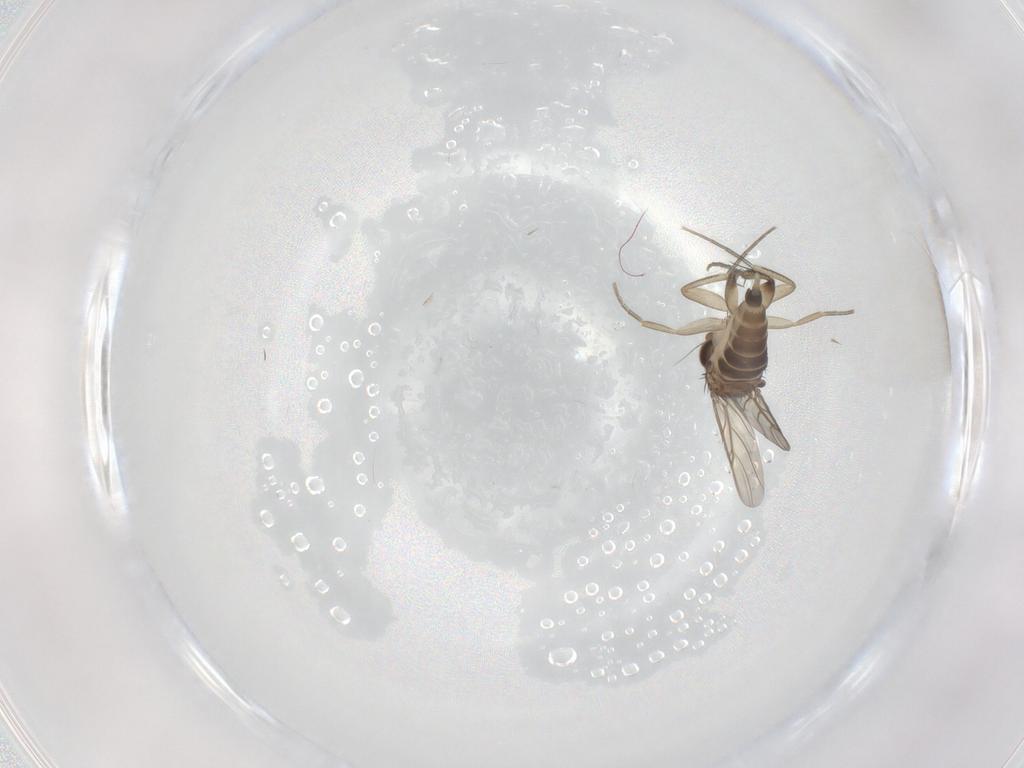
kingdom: Animalia
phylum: Arthropoda
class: Insecta
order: Diptera
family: Phoridae
